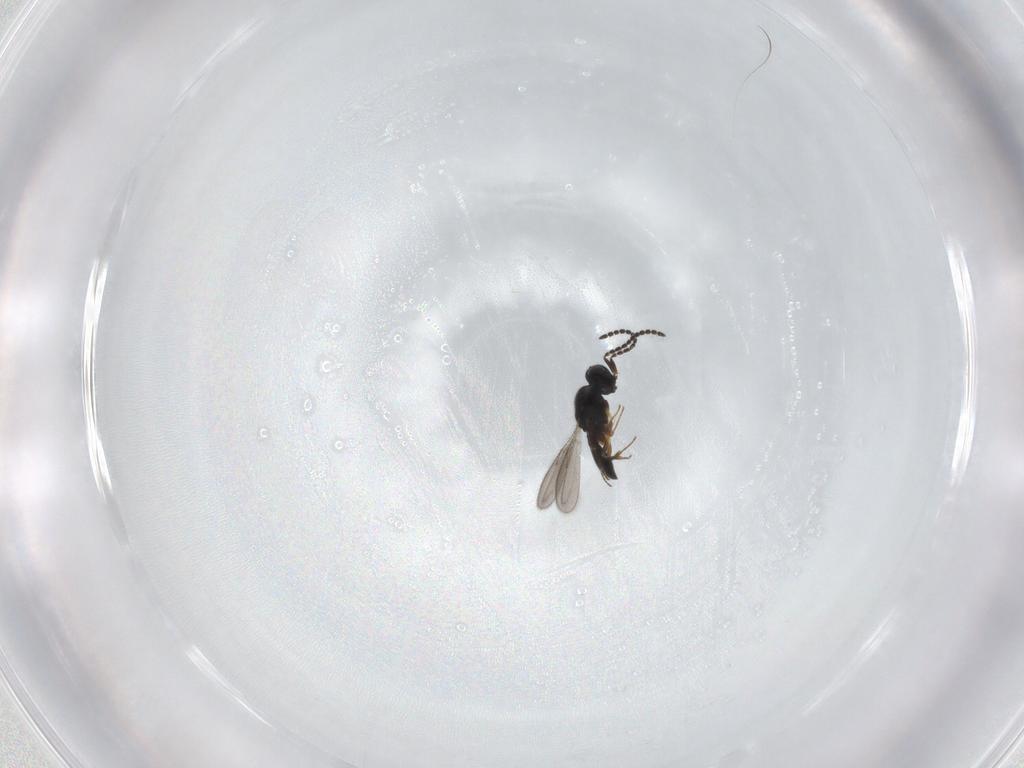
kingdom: Animalia
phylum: Arthropoda
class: Insecta
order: Hymenoptera
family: Scelionidae
